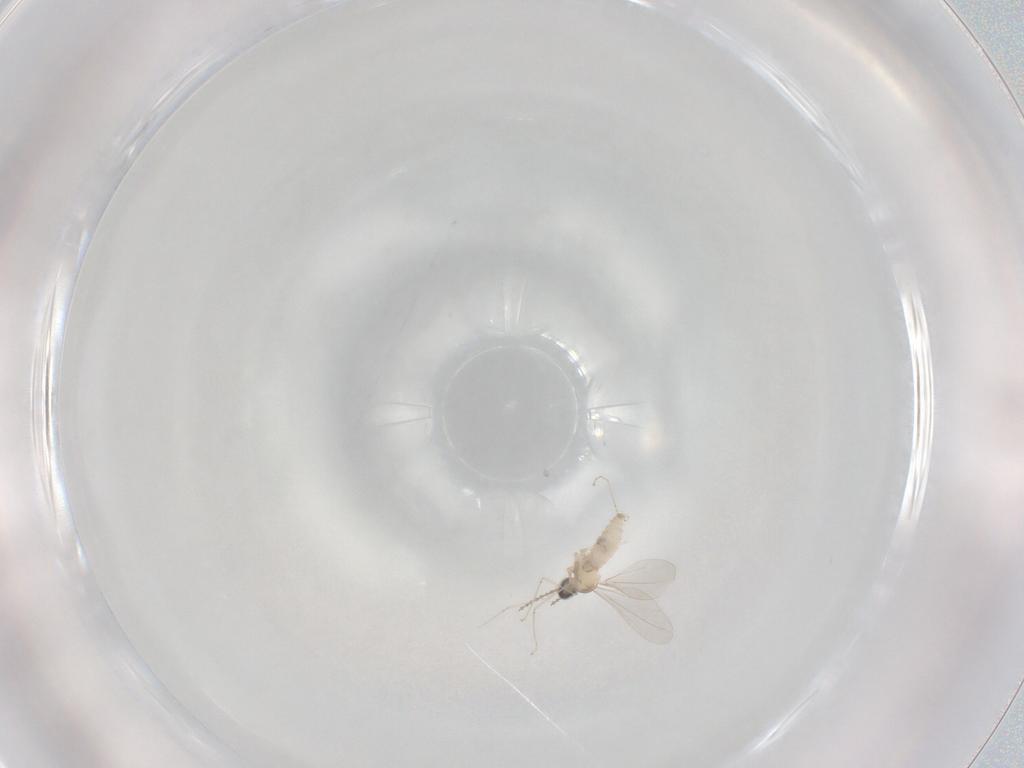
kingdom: Animalia
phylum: Arthropoda
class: Insecta
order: Diptera
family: Cecidomyiidae
